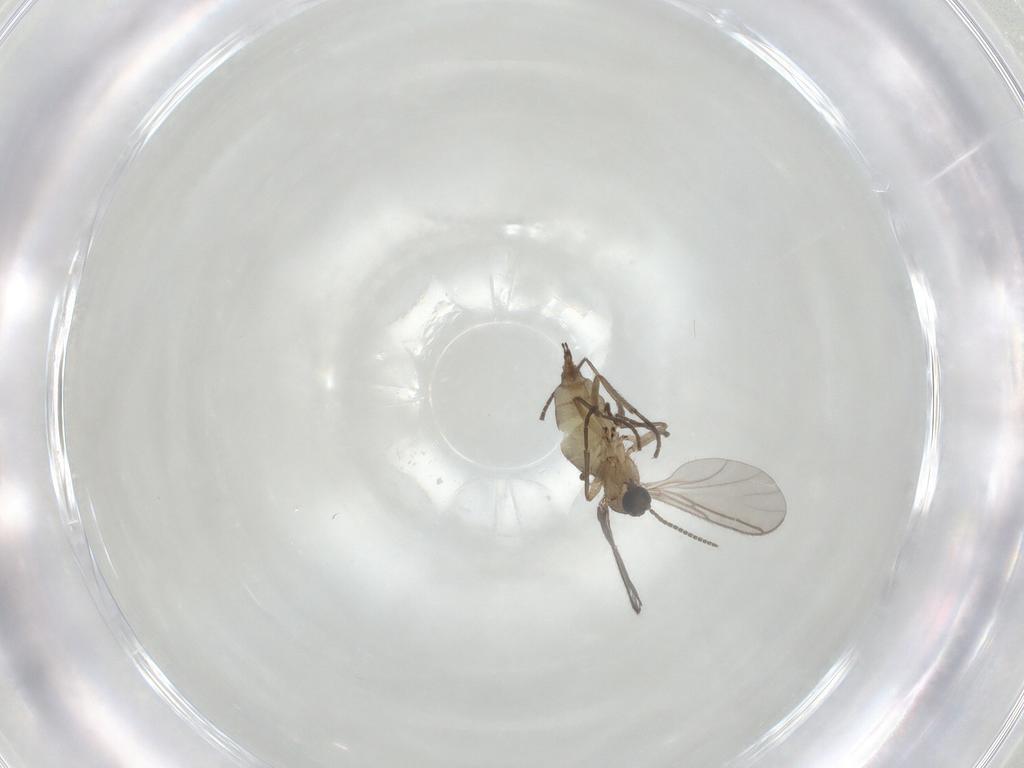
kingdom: Animalia
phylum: Arthropoda
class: Insecta
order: Diptera
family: Sciaridae
